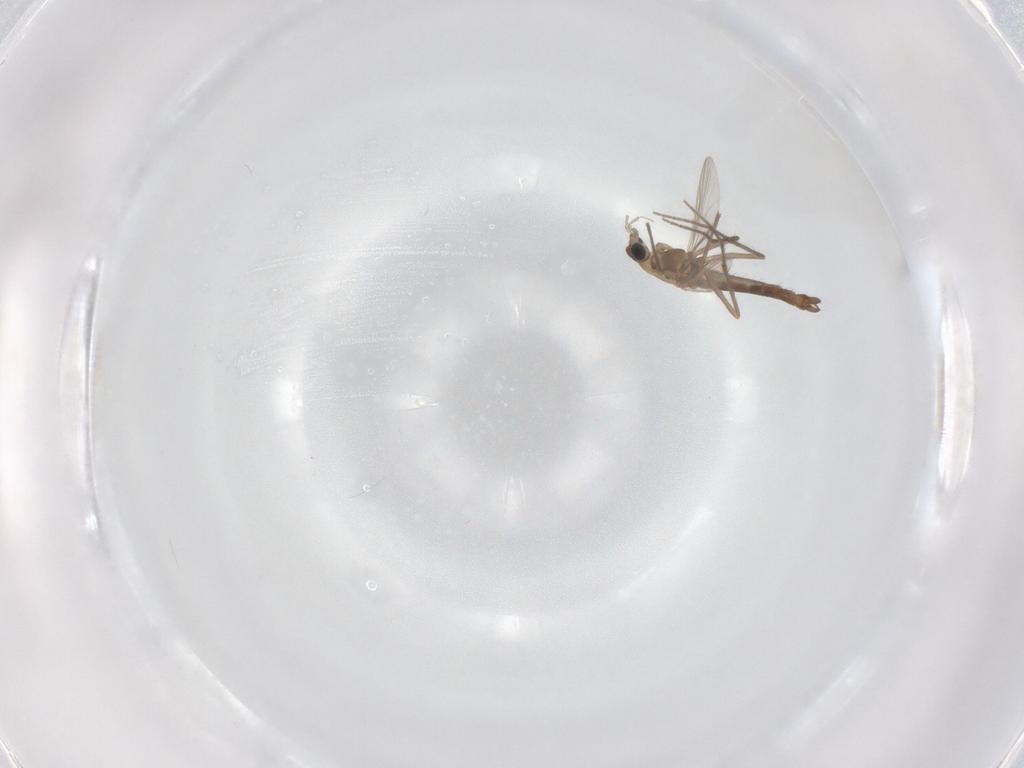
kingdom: Animalia
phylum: Arthropoda
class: Insecta
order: Diptera
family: Chironomidae
